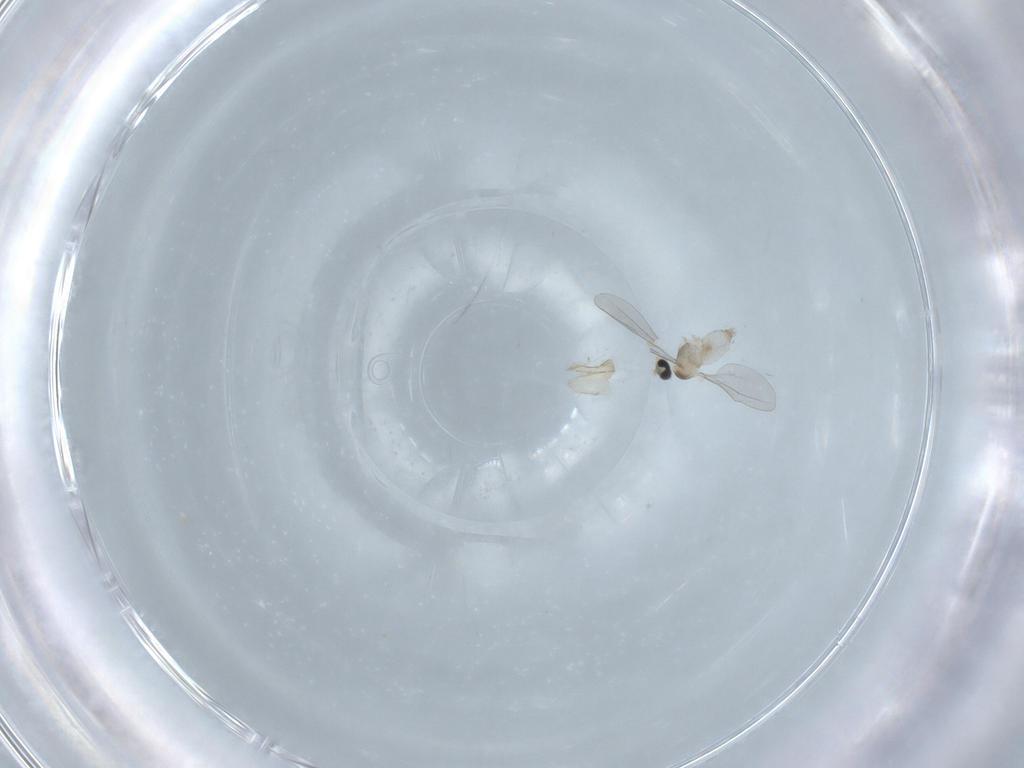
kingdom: Animalia
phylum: Arthropoda
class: Insecta
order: Diptera
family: Cecidomyiidae
